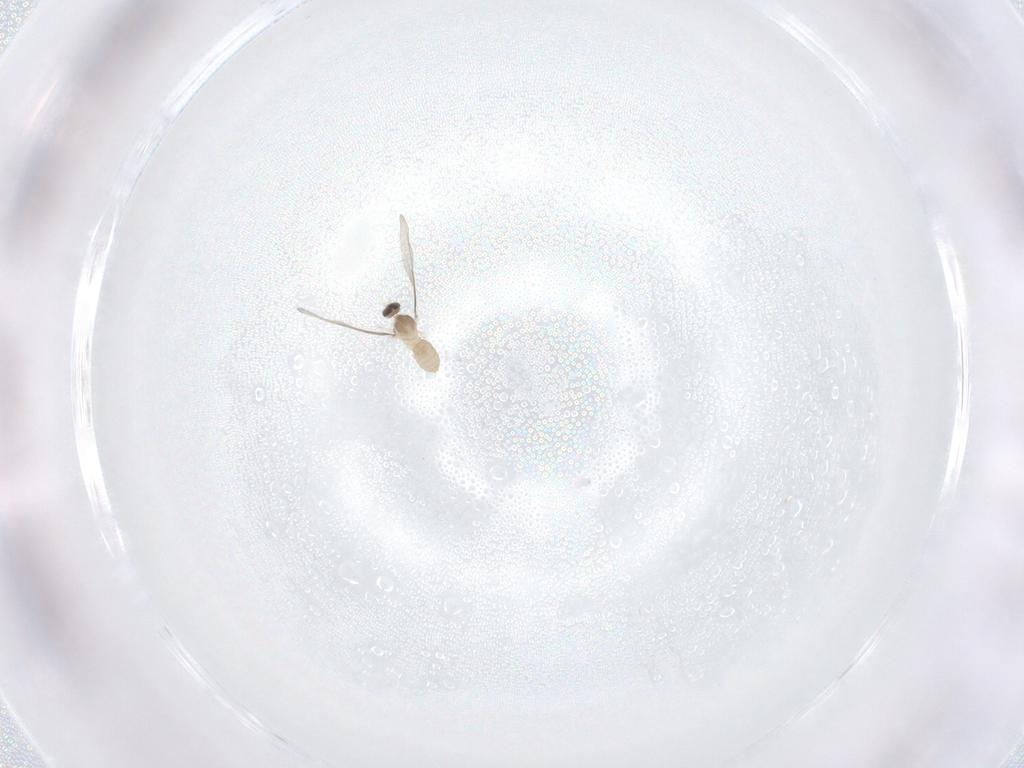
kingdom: Animalia
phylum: Arthropoda
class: Insecta
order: Diptera
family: Cecidomyiidae
